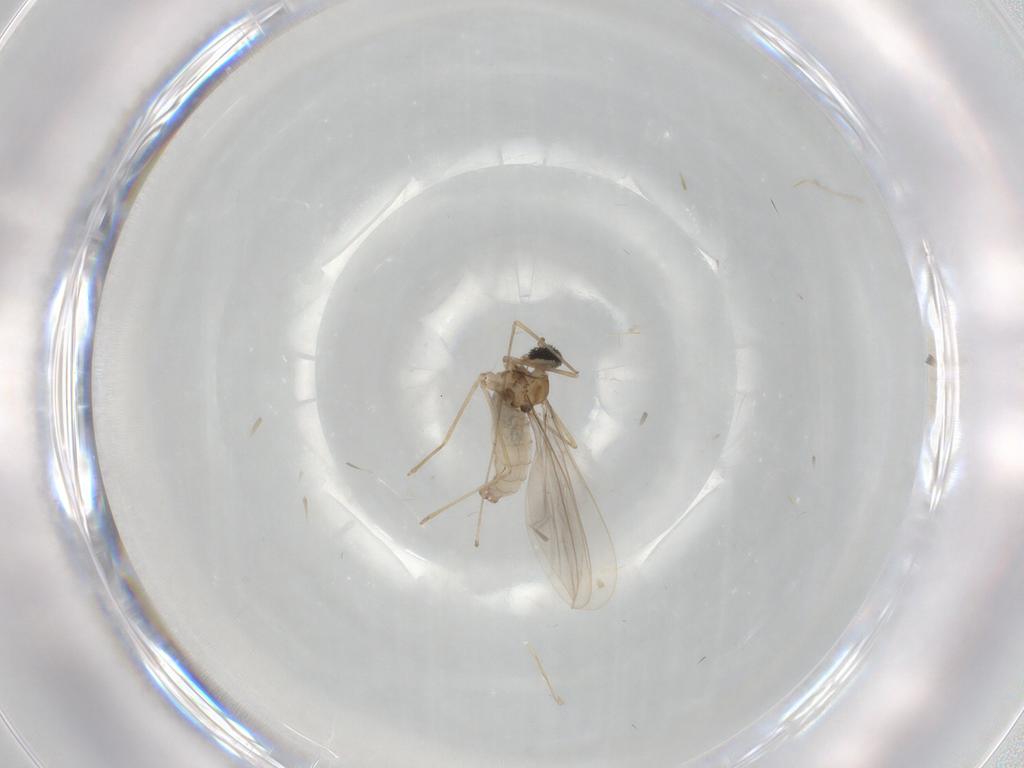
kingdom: Animalia
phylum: Arthropoda
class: Insecta
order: Diptera
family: Cecidomyiidae
